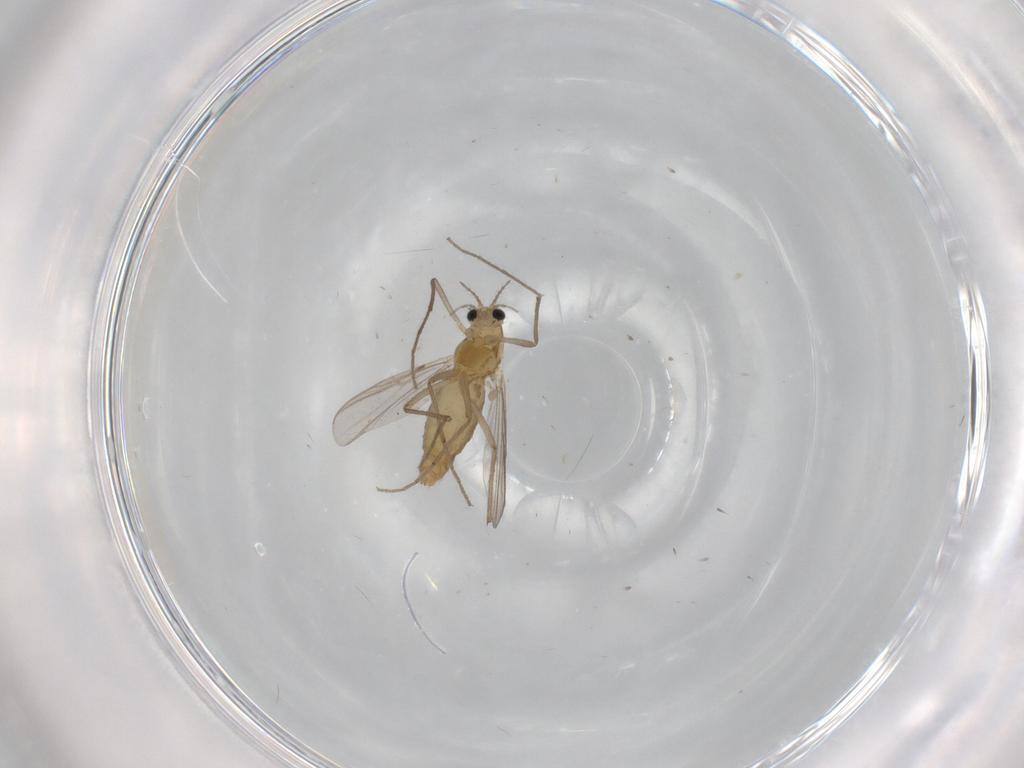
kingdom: Animalia
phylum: Arthropoda
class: Insecta
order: Diptera
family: Chironomidae
